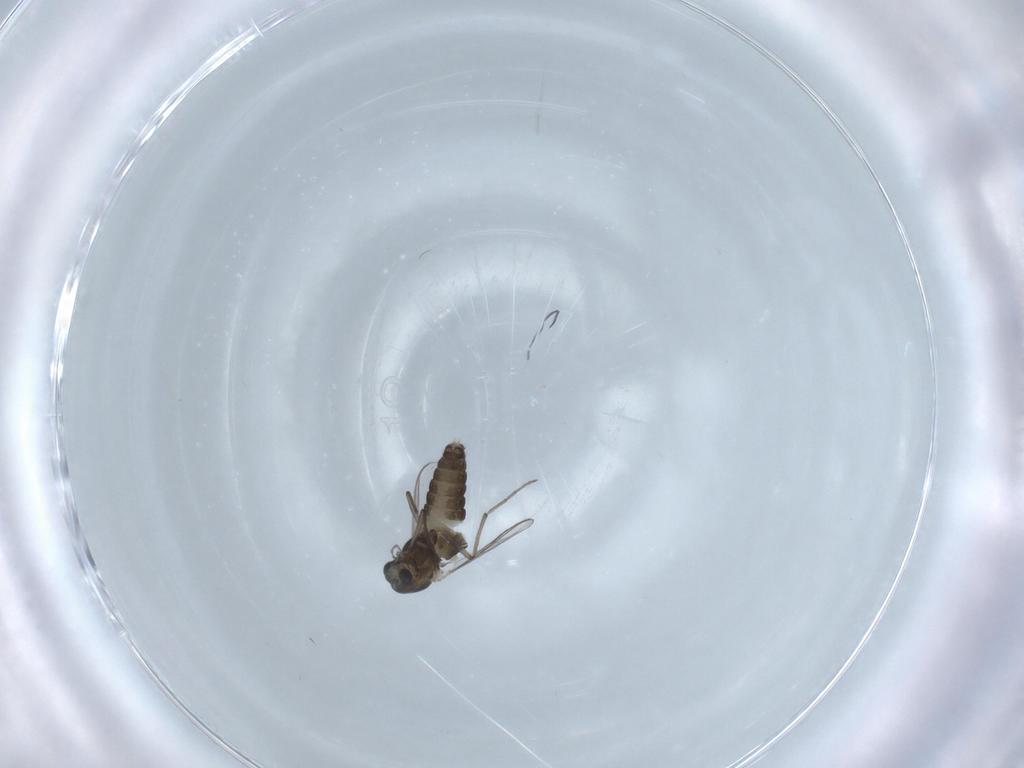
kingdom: Animalia
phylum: Arthropoda
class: Insecta
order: Diptera
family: Chironomidae
